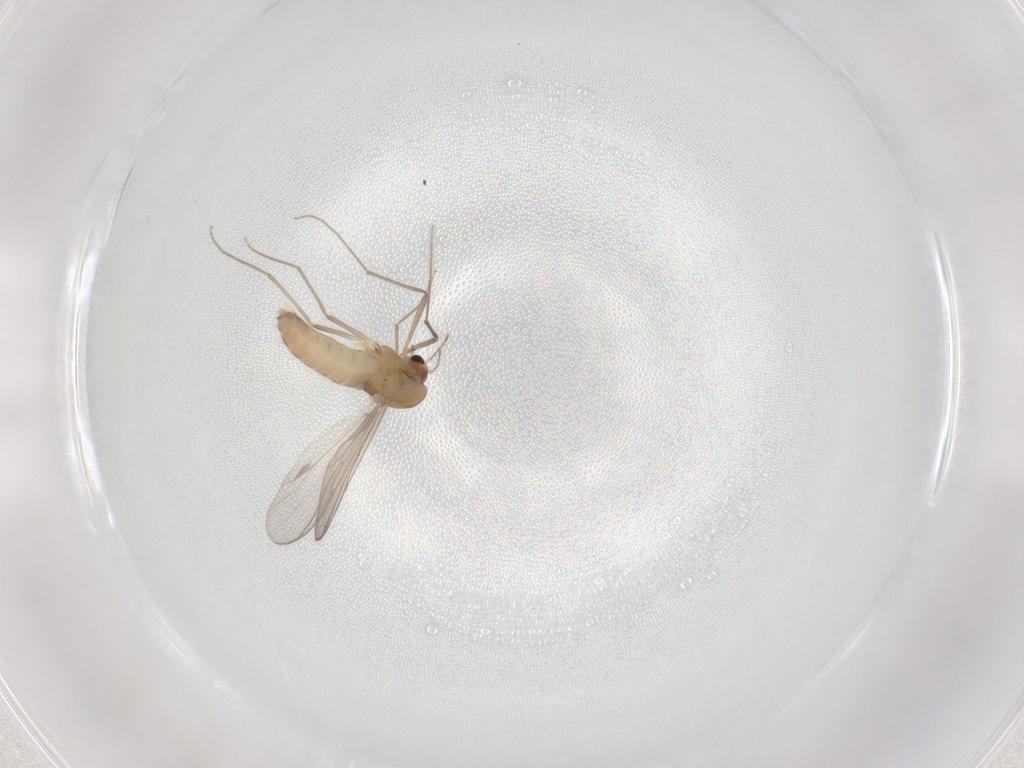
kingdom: Animalia
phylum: Arthropoda
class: Insecta
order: Diptera
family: Chironomidae
